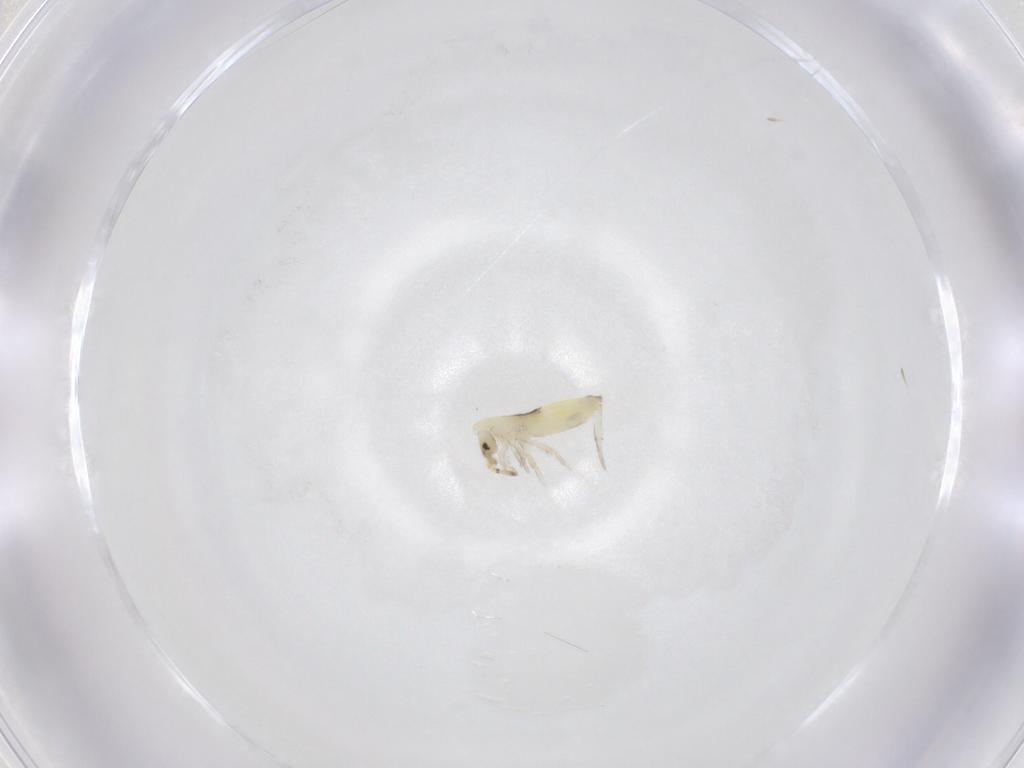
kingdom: Animalia
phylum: Arthropoda
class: Collembola
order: Entomobryomorpha
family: Entomobryidae
